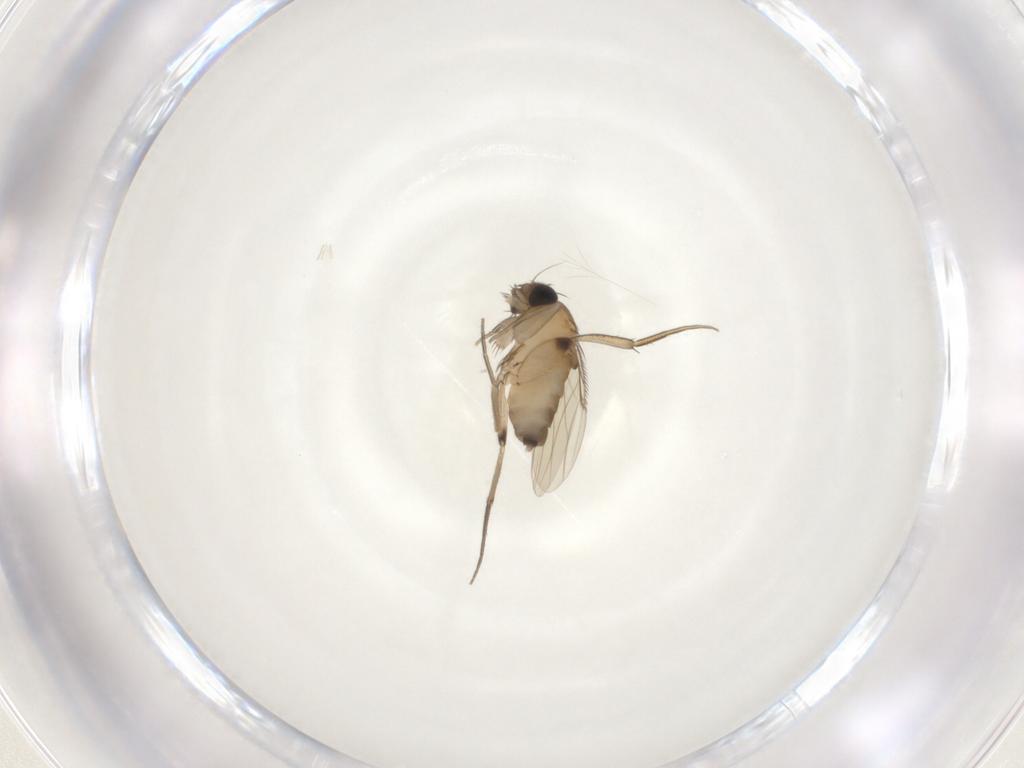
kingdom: Animalia
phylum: Arthropoda
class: Insecta
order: Diptera
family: Phoridae
